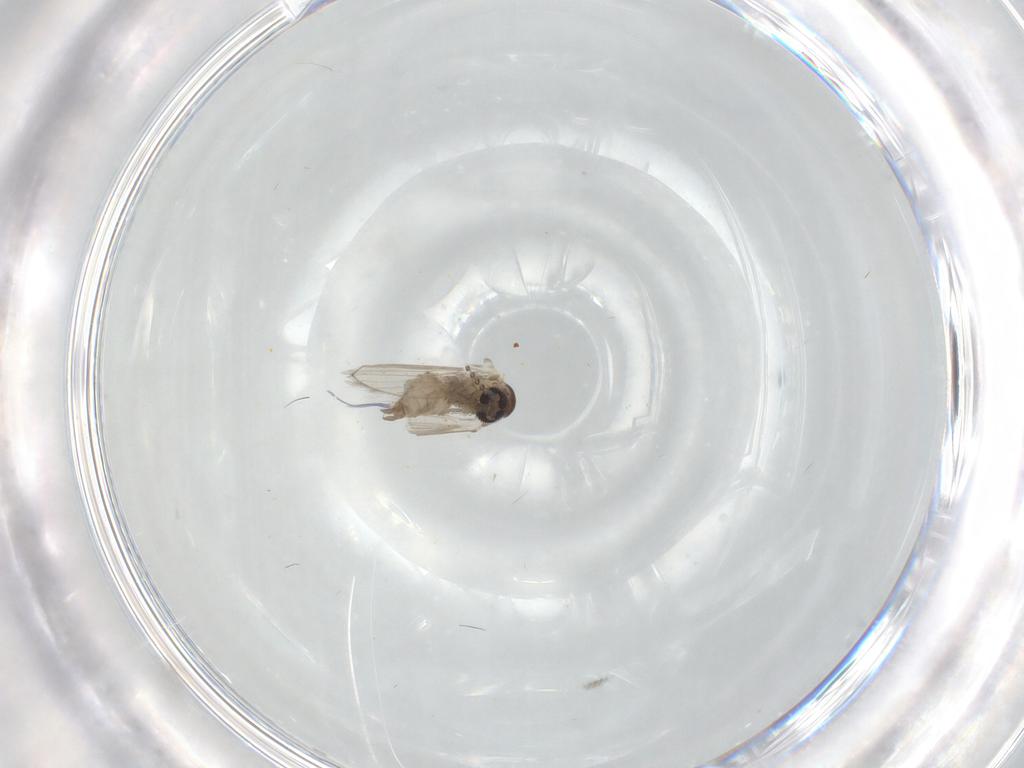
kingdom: Animalia
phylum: Arthropoda
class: Insecta
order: Diptera
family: Psychodidae
